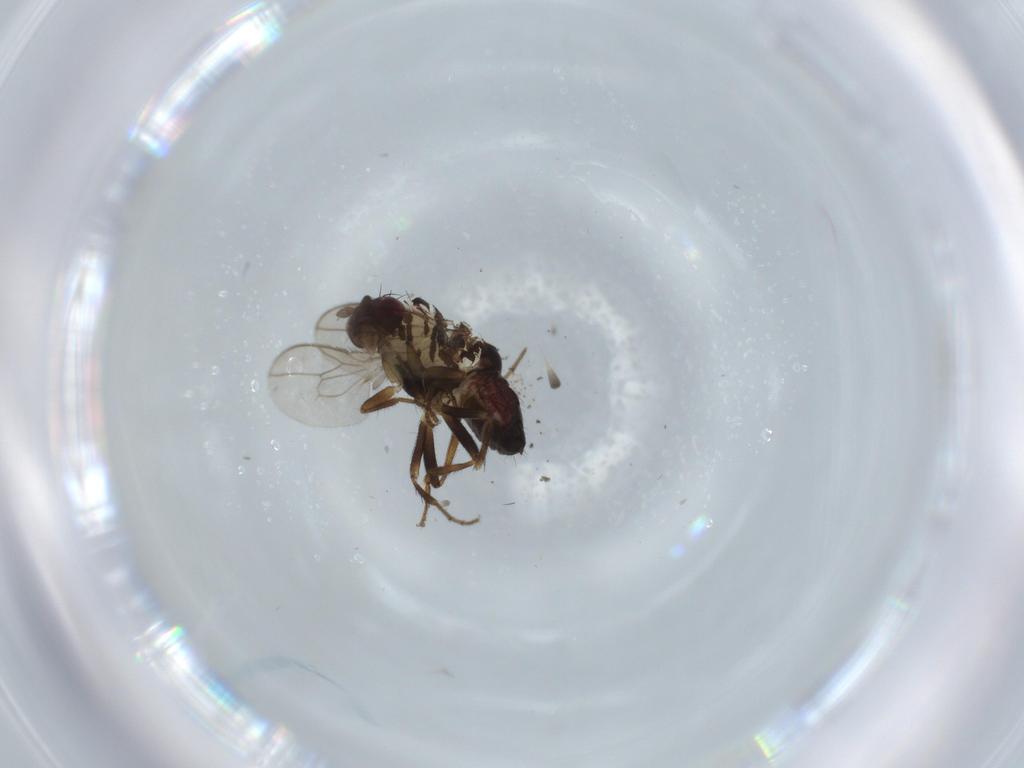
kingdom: Animalia
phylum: Arthropoda
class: Insecta
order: Diptera
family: Sphaeroceridae
